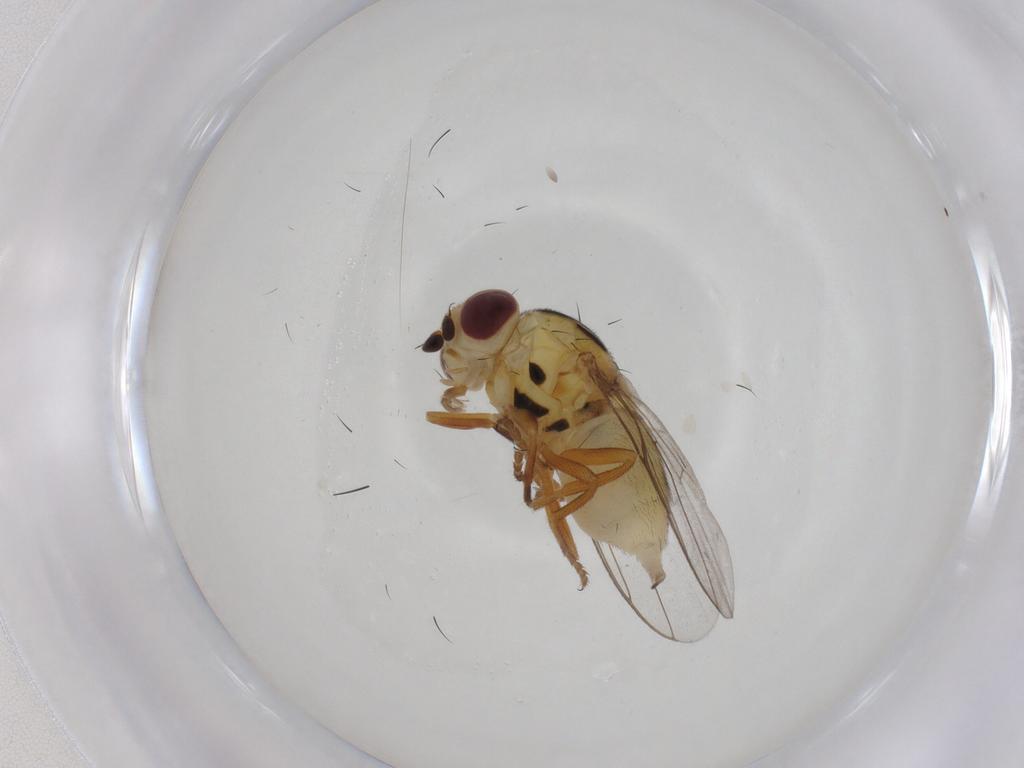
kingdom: Animalia
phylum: Arthropoda
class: Insecta
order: Diptera
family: Chloropidae
